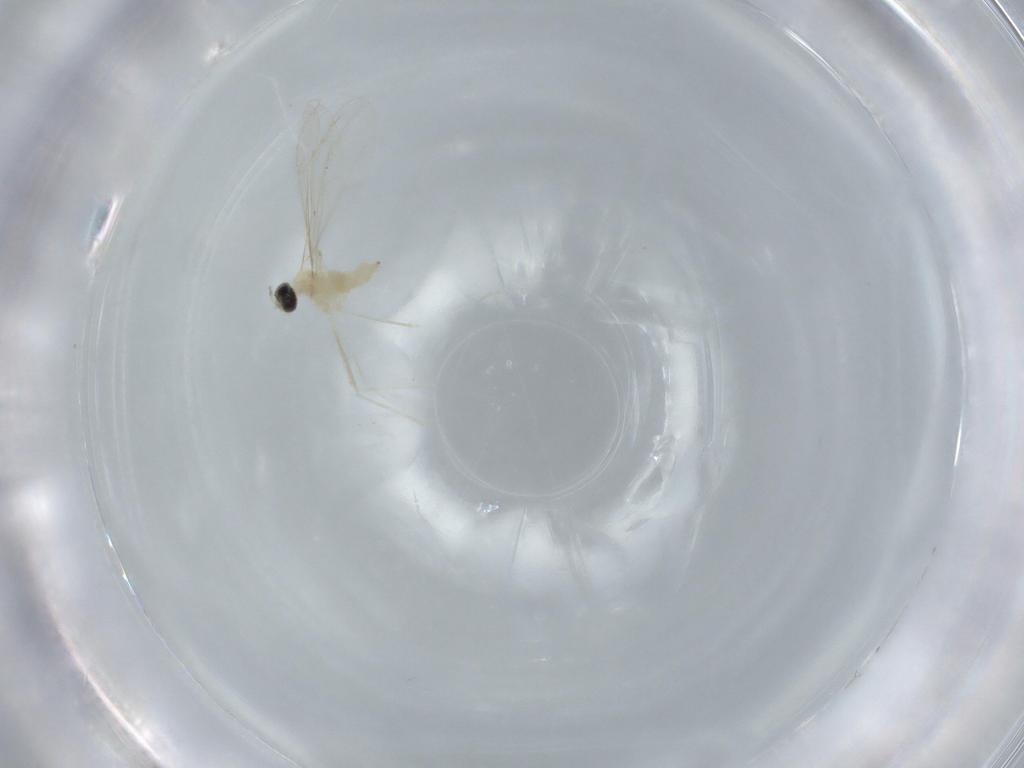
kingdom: Animalia
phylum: Arthropoda
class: Insecta
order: Diptera
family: Cecidomyiidae
